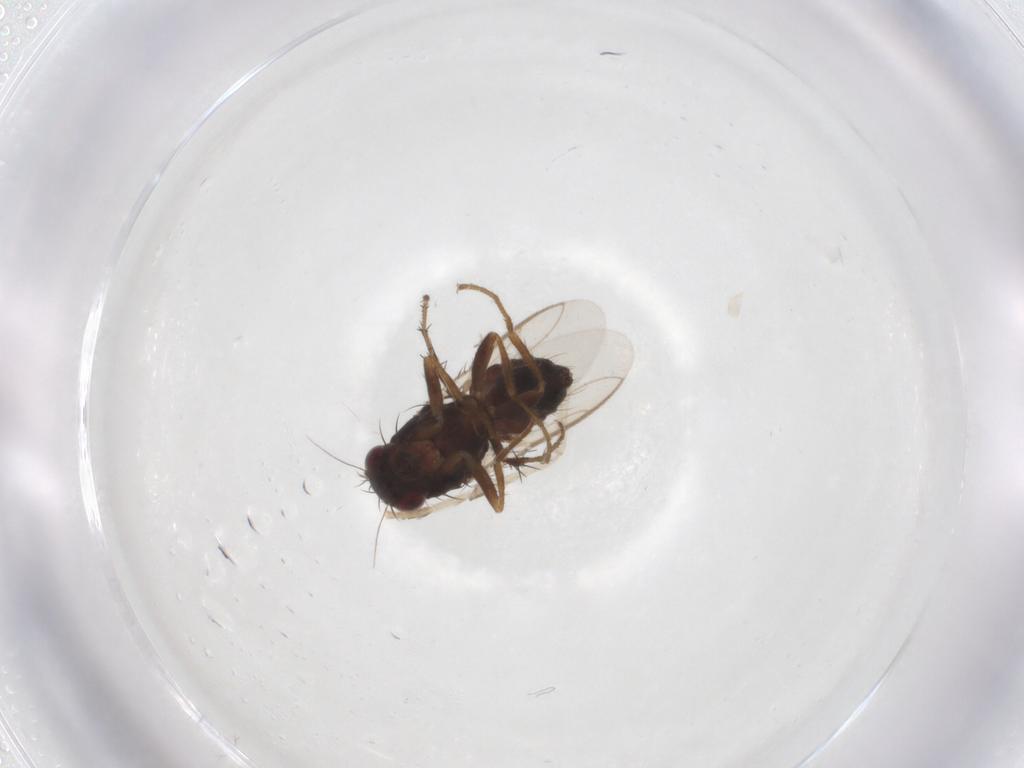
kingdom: Animalia
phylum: Arthropoda
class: Insecta
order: Diptera
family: Sphaeroceridae
